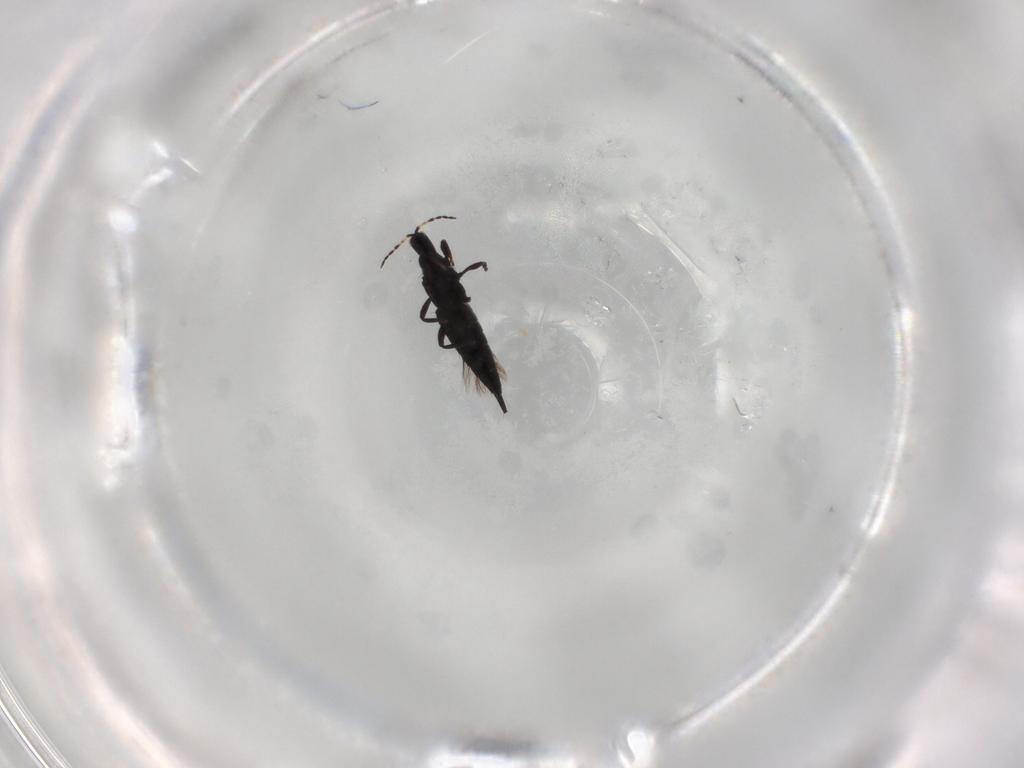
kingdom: Animalia
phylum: Arthropoda
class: Insecta
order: Thysanoptera
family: Phlaeothripidae
